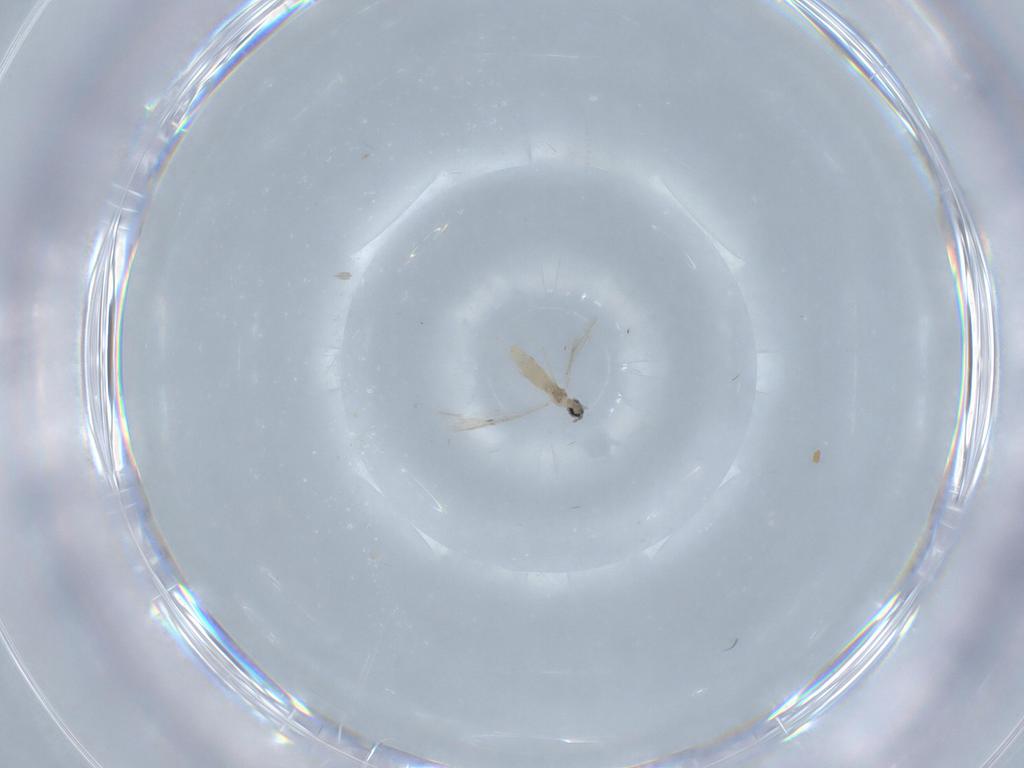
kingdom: Animalia
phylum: Arthropoda
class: Insecta
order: Diptera
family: Cecidomyiidae
